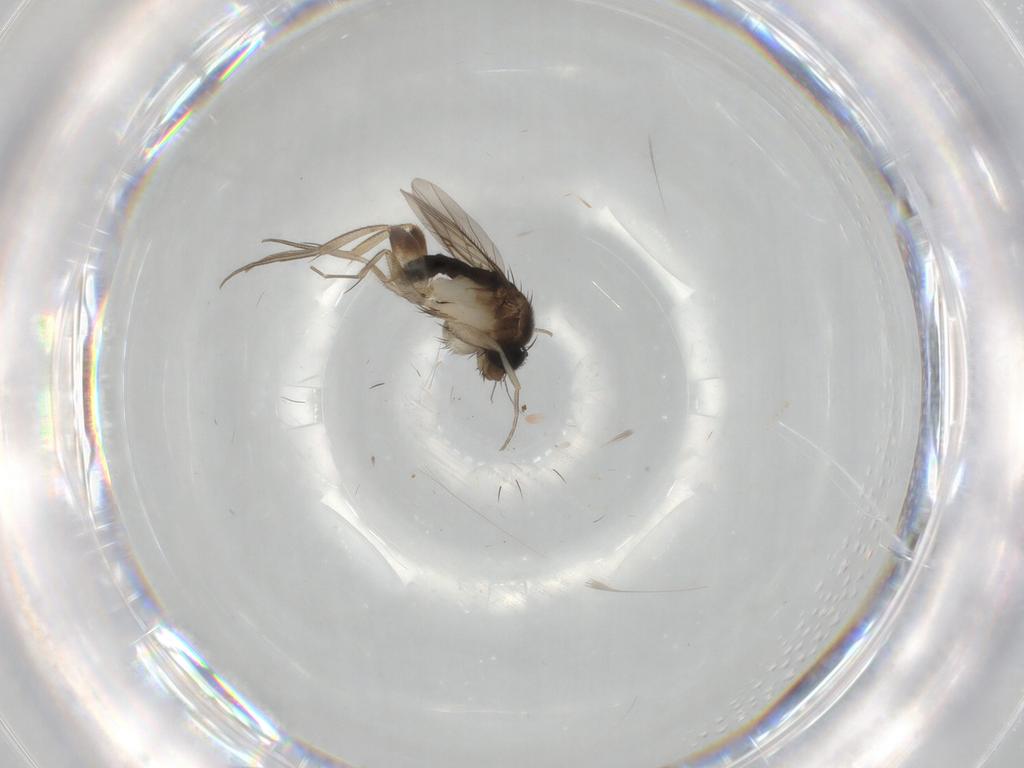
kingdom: Animalia
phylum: Arthropoda
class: Insecta
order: Diptera
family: Phoridae
